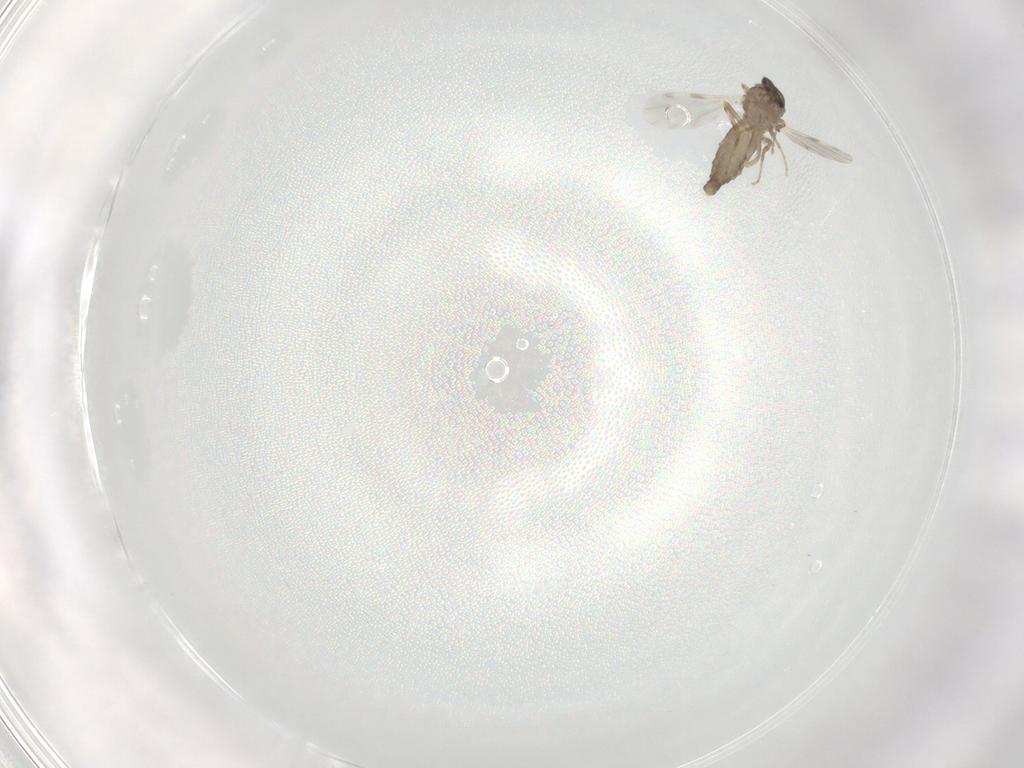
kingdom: Animalia
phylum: Arthropoda
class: Insecta
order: Diptera
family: Ceratopogonidae
